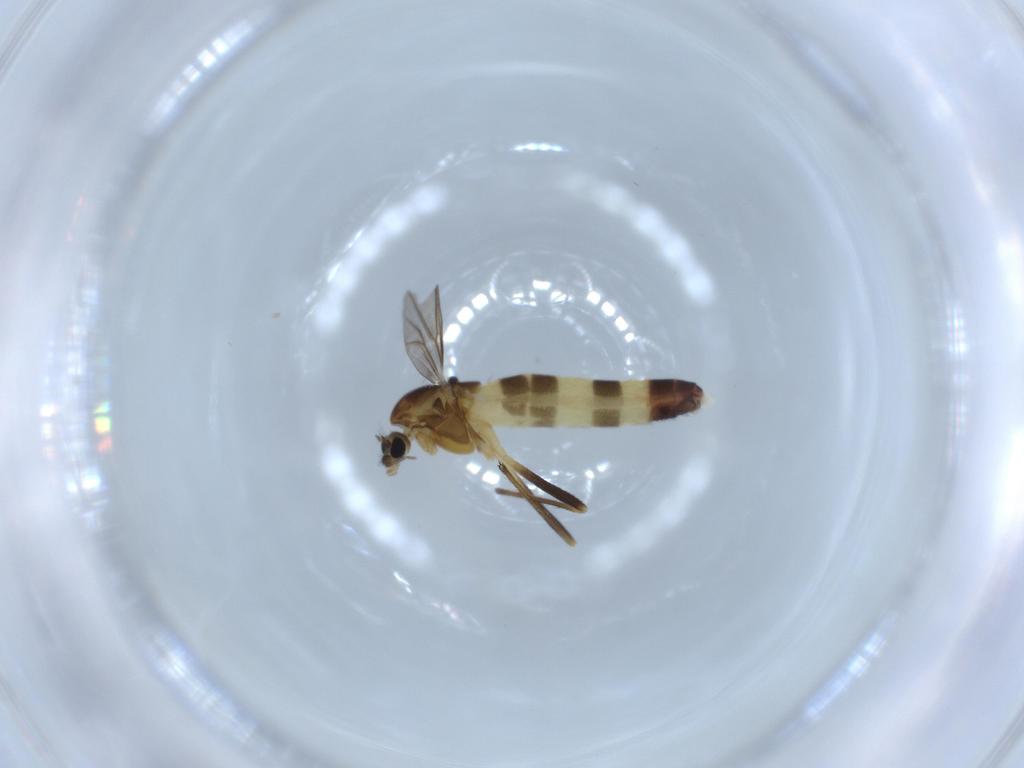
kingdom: Animalia
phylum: Arthropoda
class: Insecta
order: Diptera
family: Chironomidae
